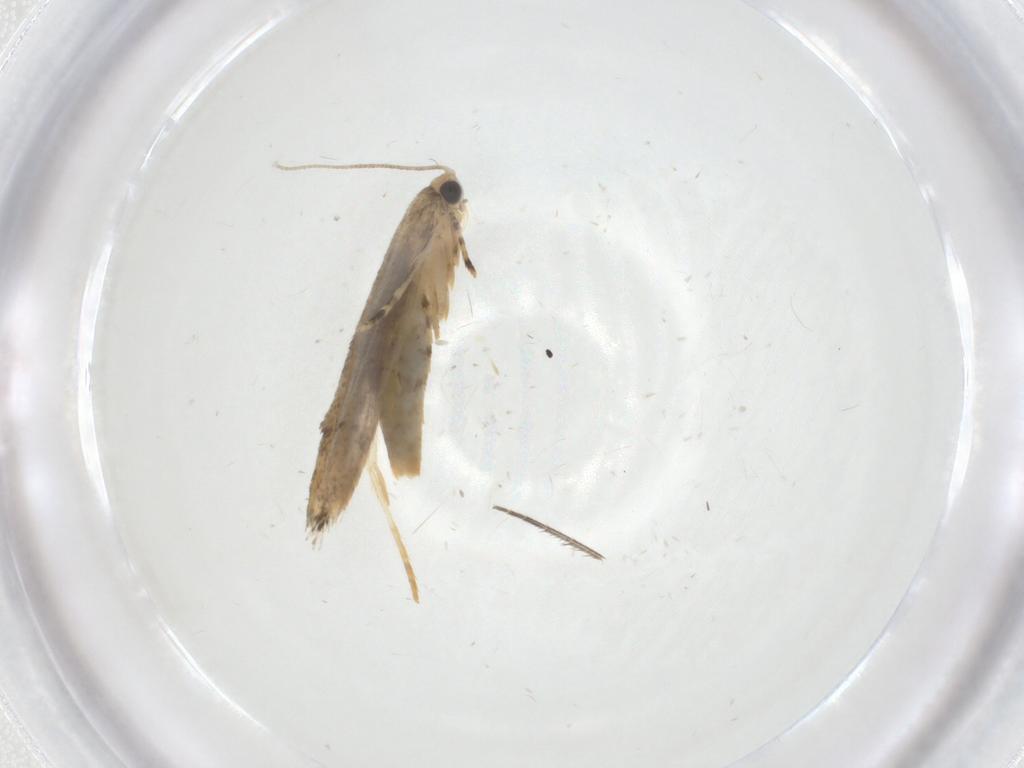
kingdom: Animalia
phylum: Arthropoda
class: Insecta
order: Lepidoptera
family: Tineidae
